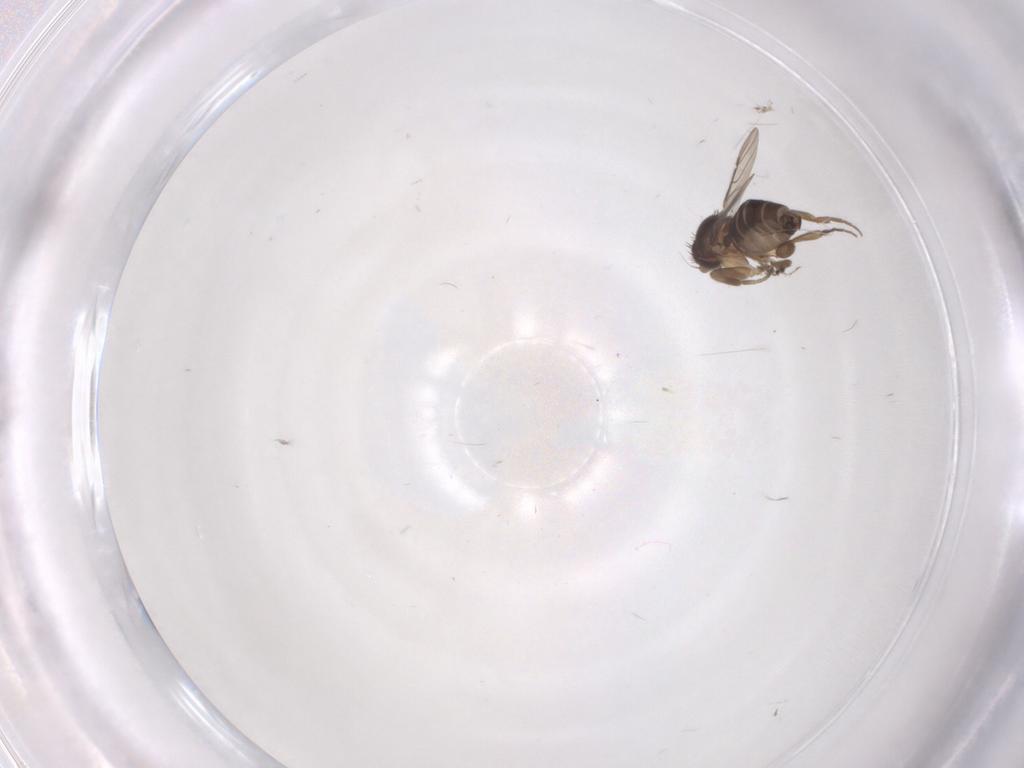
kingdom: Animalia
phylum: Arthropoda
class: Insecta
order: Diptera
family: Phoridae
